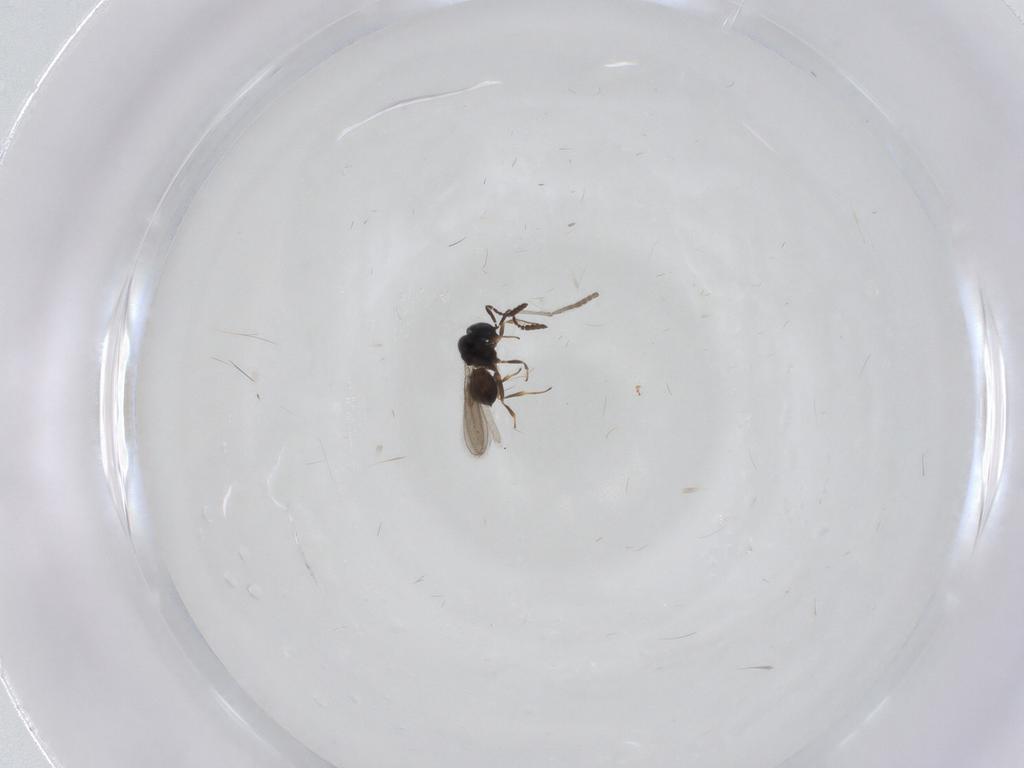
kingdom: Animalia
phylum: Arthropoda
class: Insecta
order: Hymenoptera
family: Scelionidae
